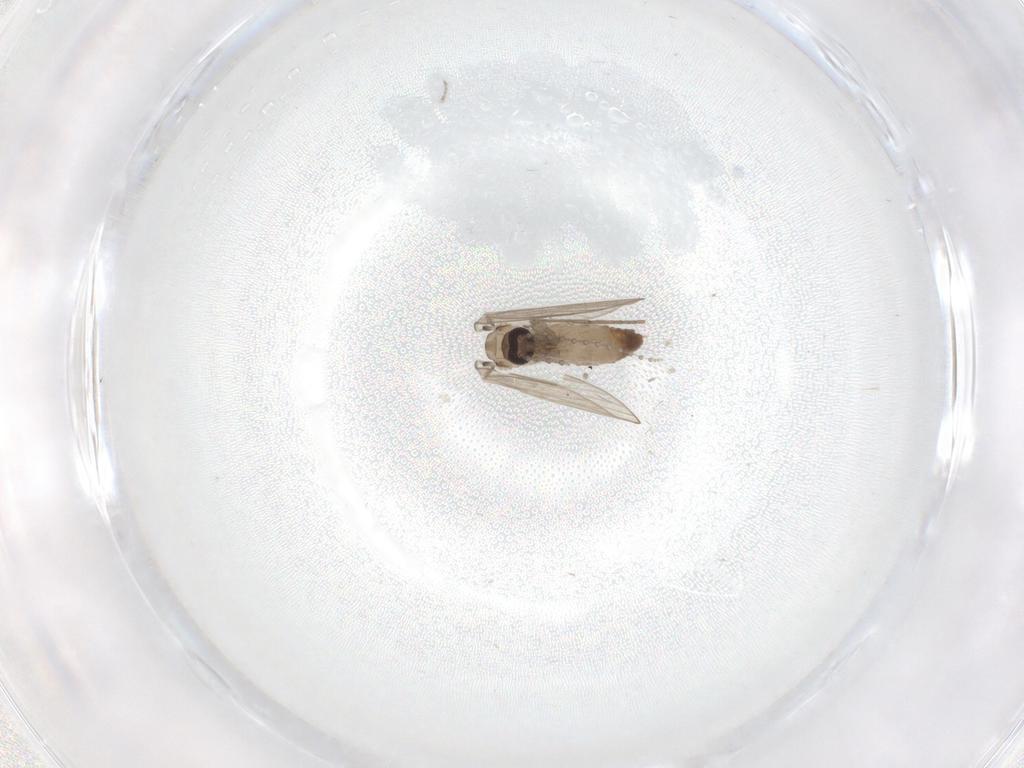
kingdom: Animalia
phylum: Arthropoda
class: Insecta
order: Diptera
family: Psychodidae
